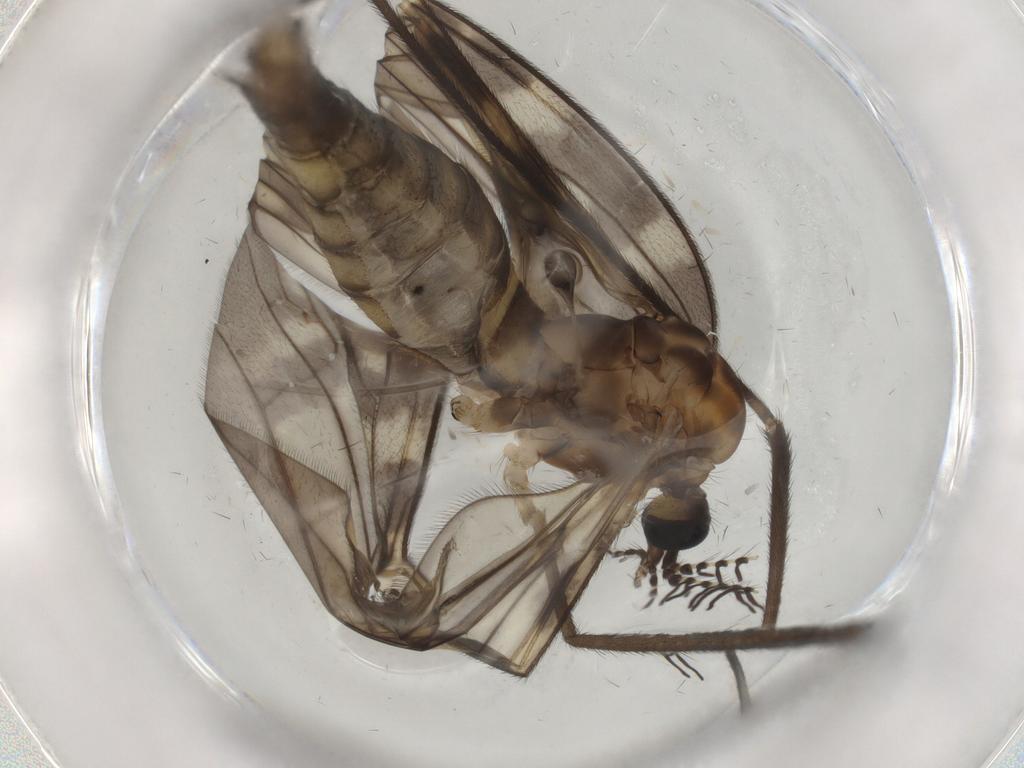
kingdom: Animalia
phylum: Arthropoda
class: Insecta
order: Diptera
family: Limoniidae
